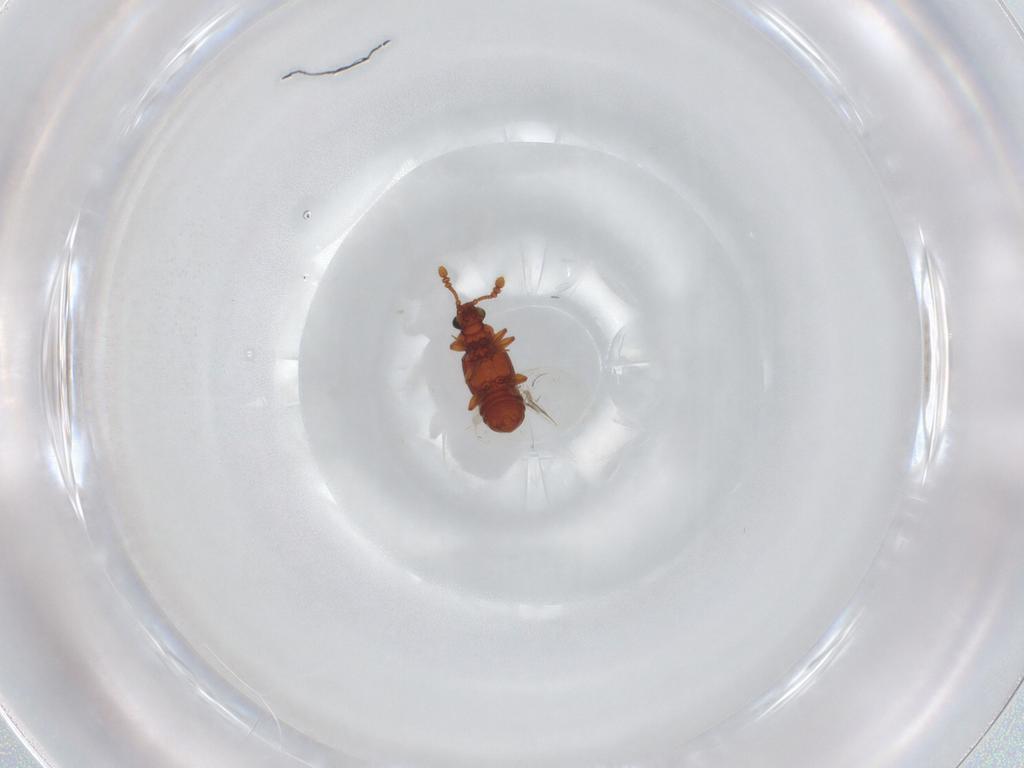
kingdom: Animalia
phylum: Arthropoda
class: Insecta
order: Coleoptera
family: Staphylinidae
